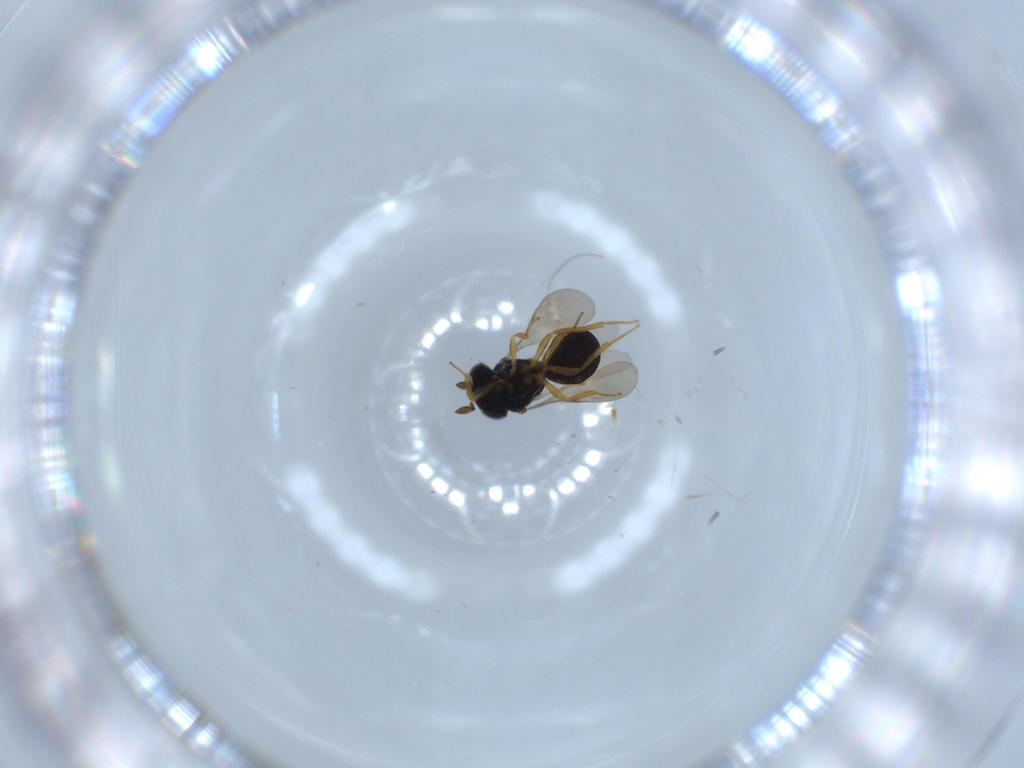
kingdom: Animalia
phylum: Arthropoda
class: Insecta
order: Hymenoptera
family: Scelionidae
